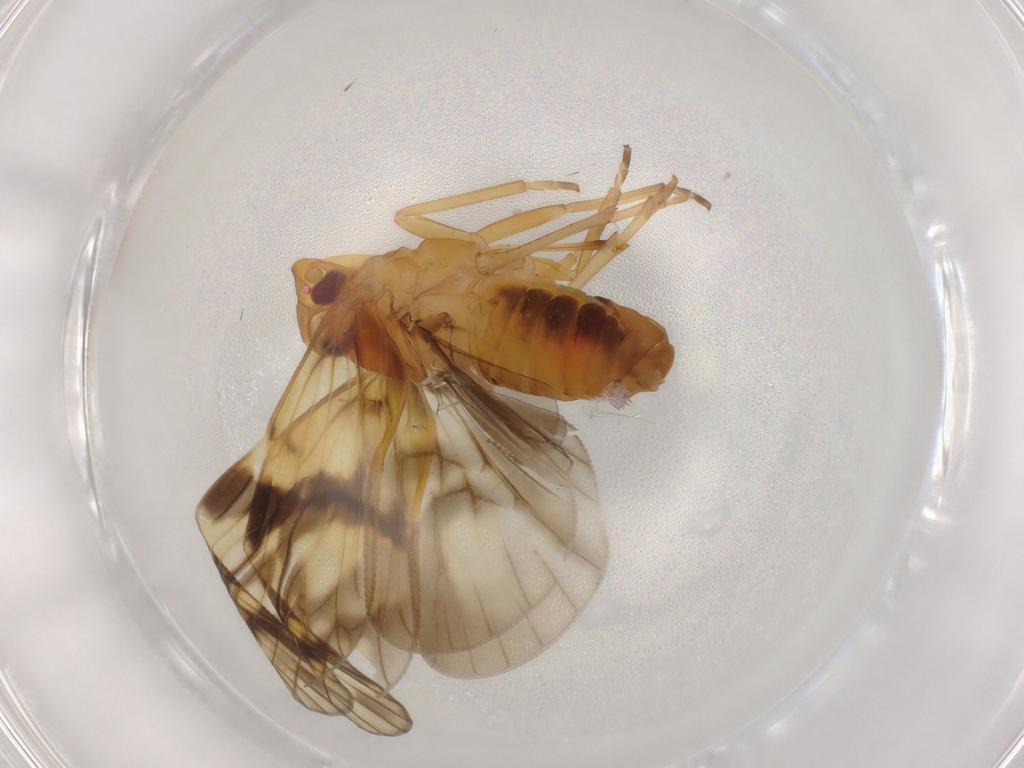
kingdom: Animalia
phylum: Arthropoda
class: Insecta
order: Hemiptera
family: Cixiidae
